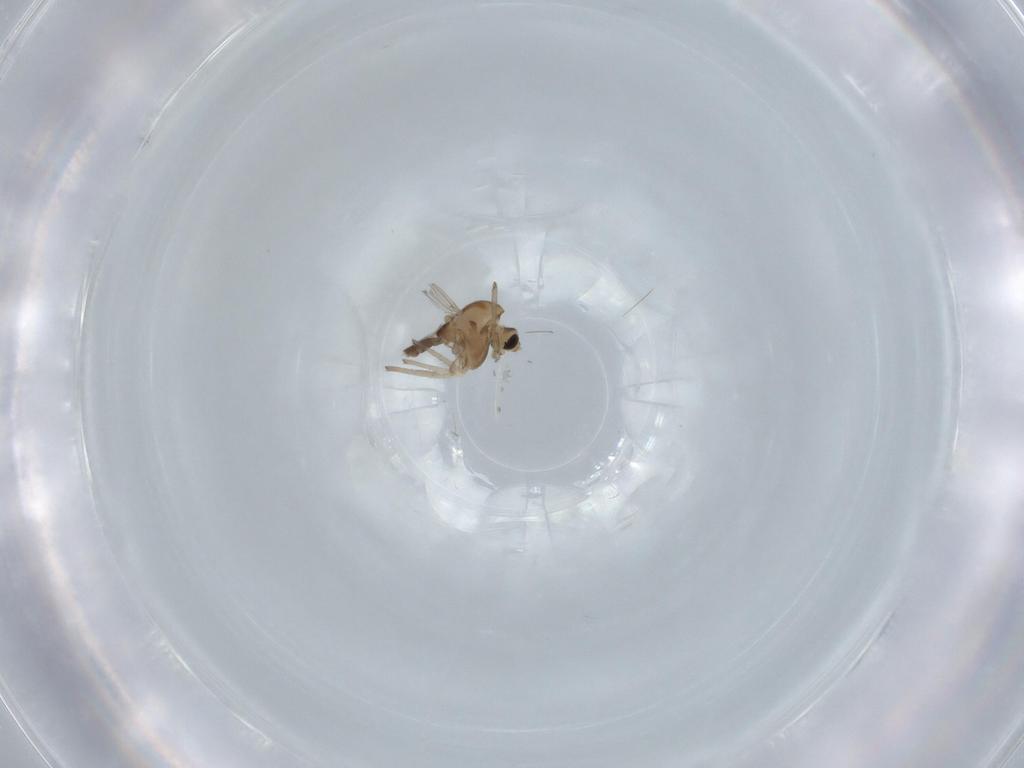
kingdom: Animalia
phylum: Arthropoda
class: Insecta
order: Diptera
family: Chironomidae
